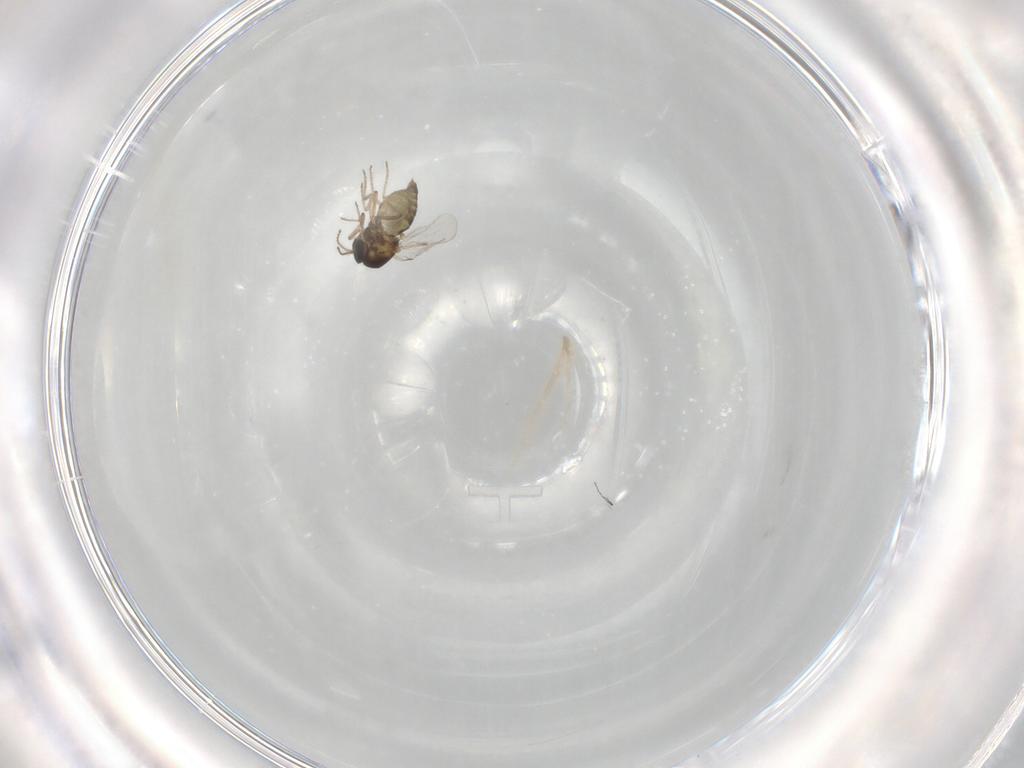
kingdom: Animalia
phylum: Arthropoda
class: Insecta
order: Diptera
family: Ceratopogonidae
